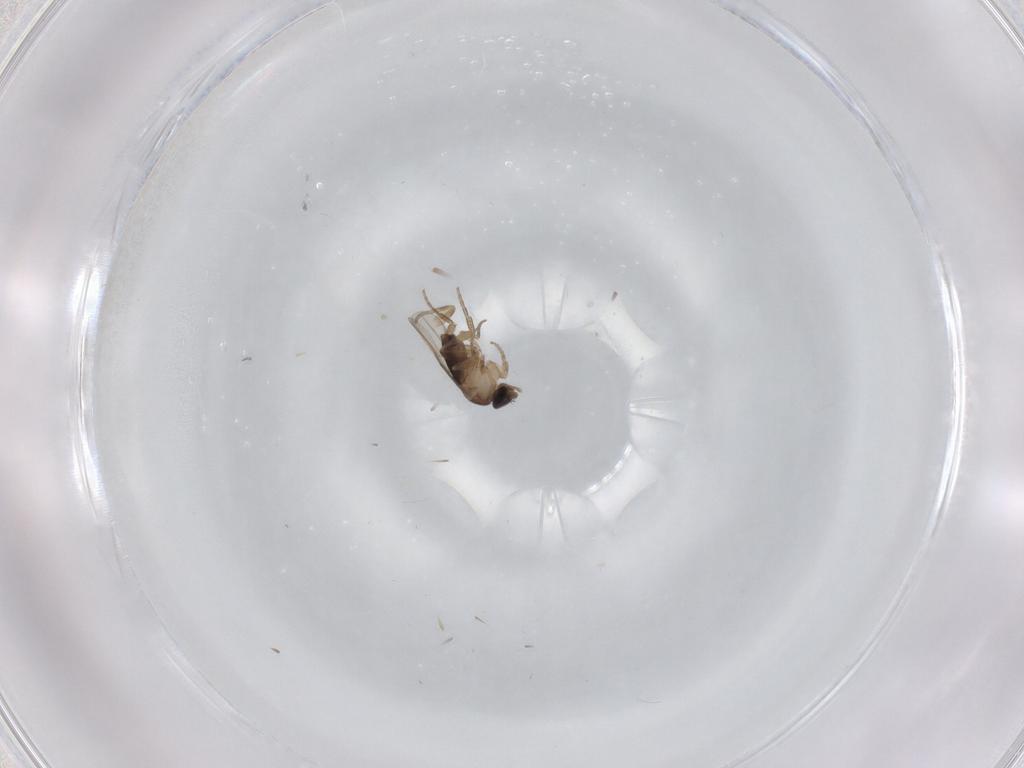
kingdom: Animalia
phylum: Arthropoda
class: Insecta
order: Diptera
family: Phoridae
